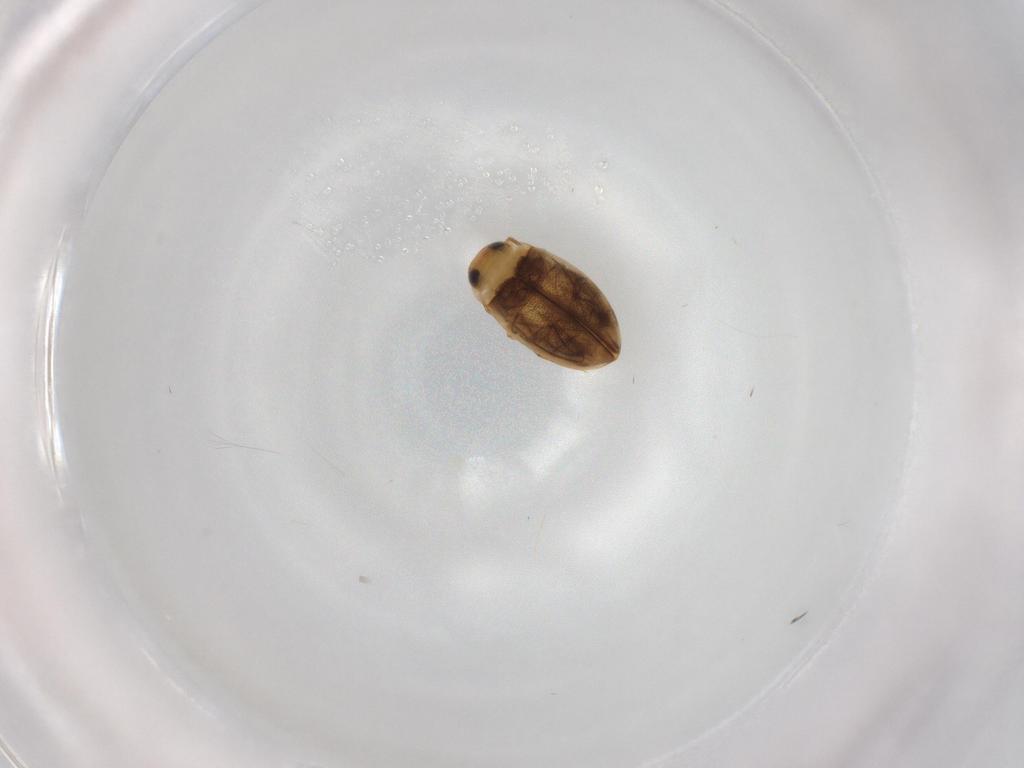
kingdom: Animalia
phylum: Arthropoda
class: Insecta
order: Coleoptera
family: Dytiscidae
